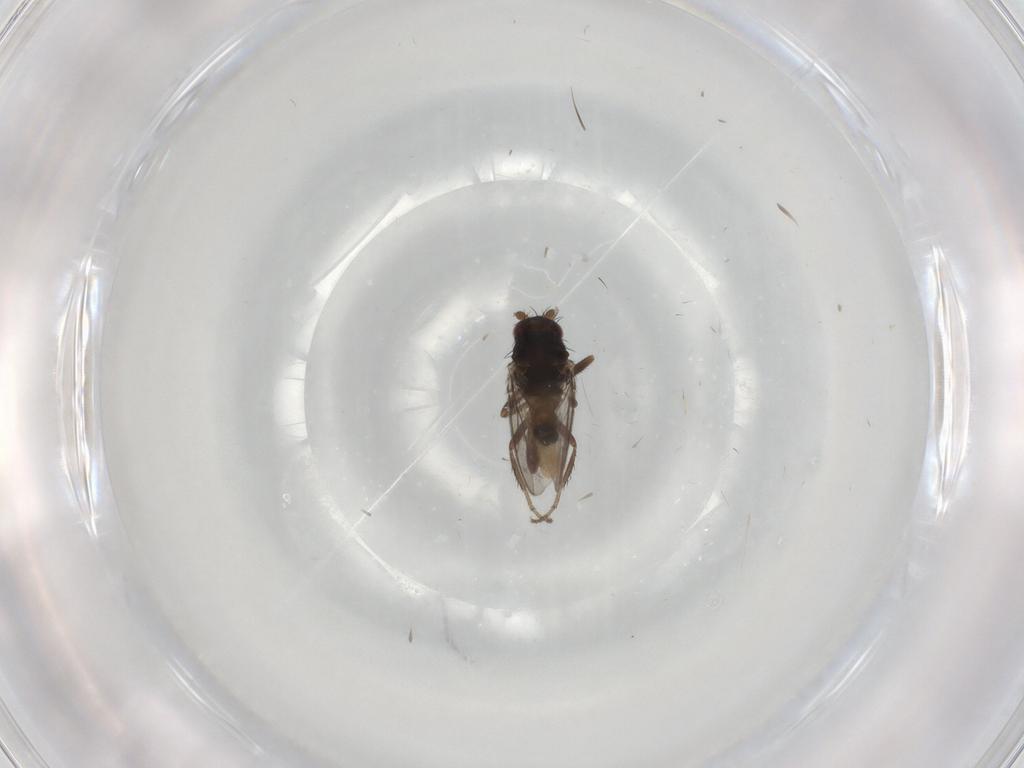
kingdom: Animalia
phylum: Arthropoda
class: Insecta
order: Diptera
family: Sphaeroceridae
